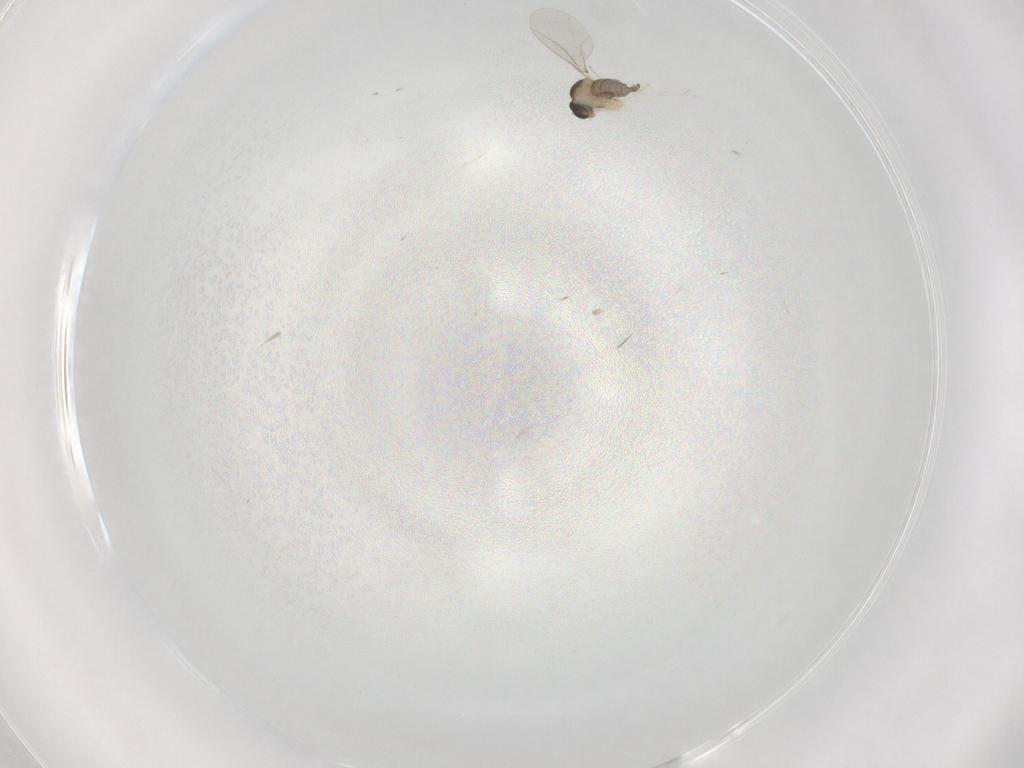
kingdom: Animalia
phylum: Arthropoda
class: Insecta
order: Diptera
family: Cecidomyiidae
